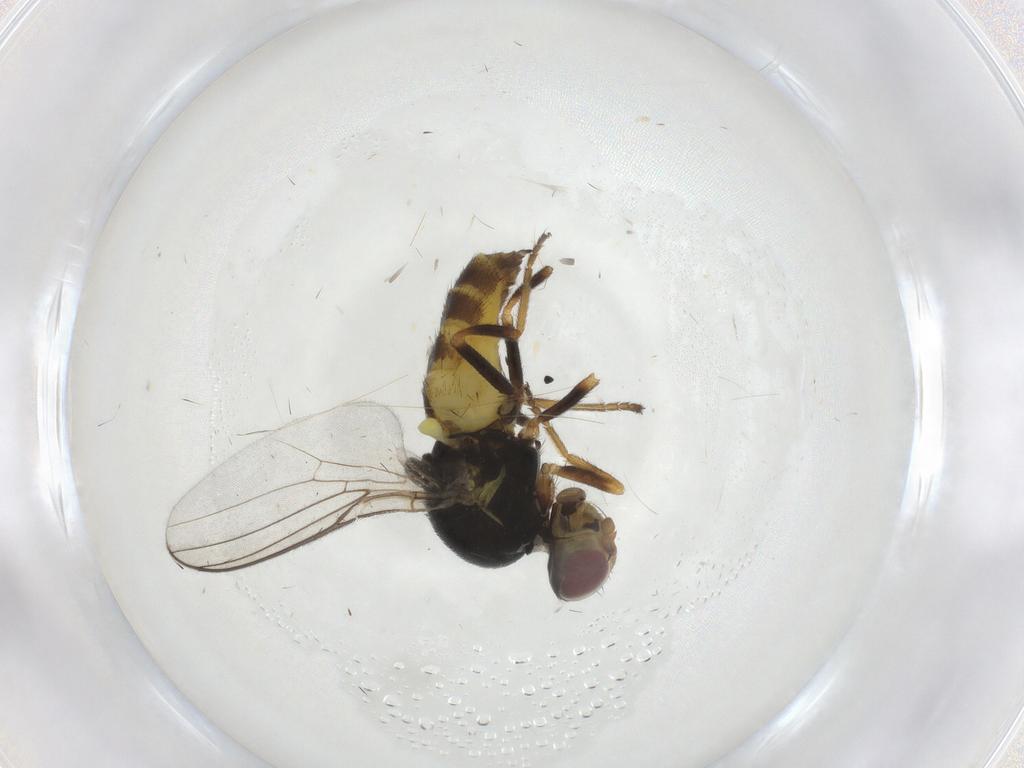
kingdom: Animalia
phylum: Arthropoda
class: Insecta
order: Diptera
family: Chloropidae
